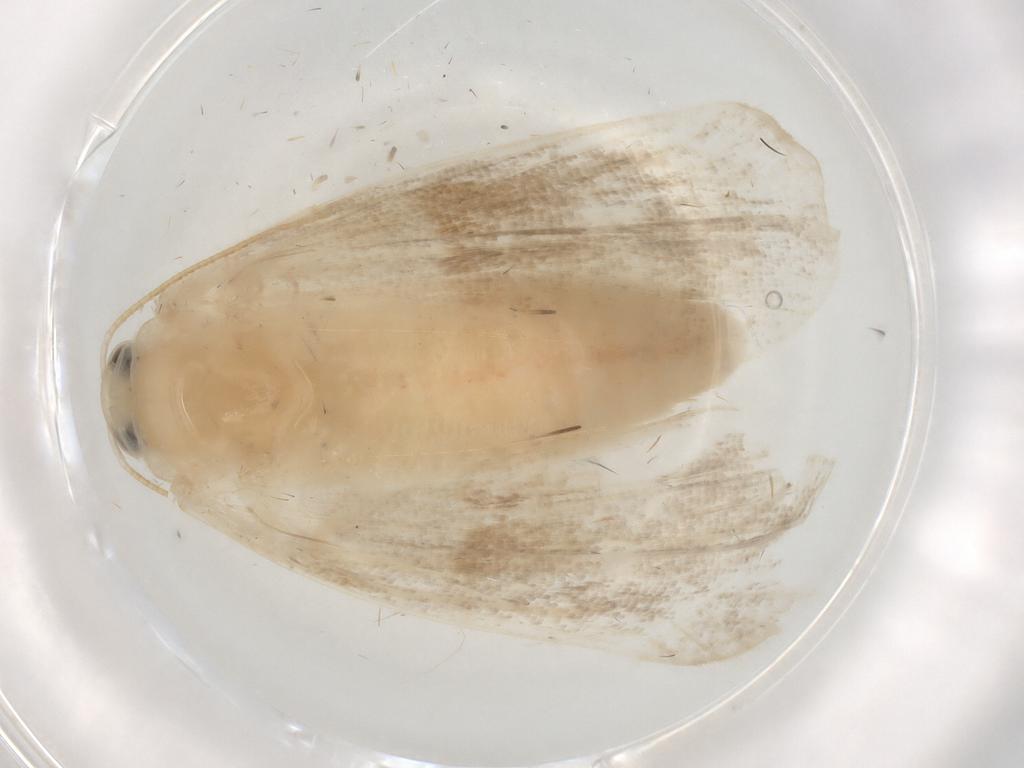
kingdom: Animalia
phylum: Arthropoda
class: Insecta
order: Lepidoptera
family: Erebidae
